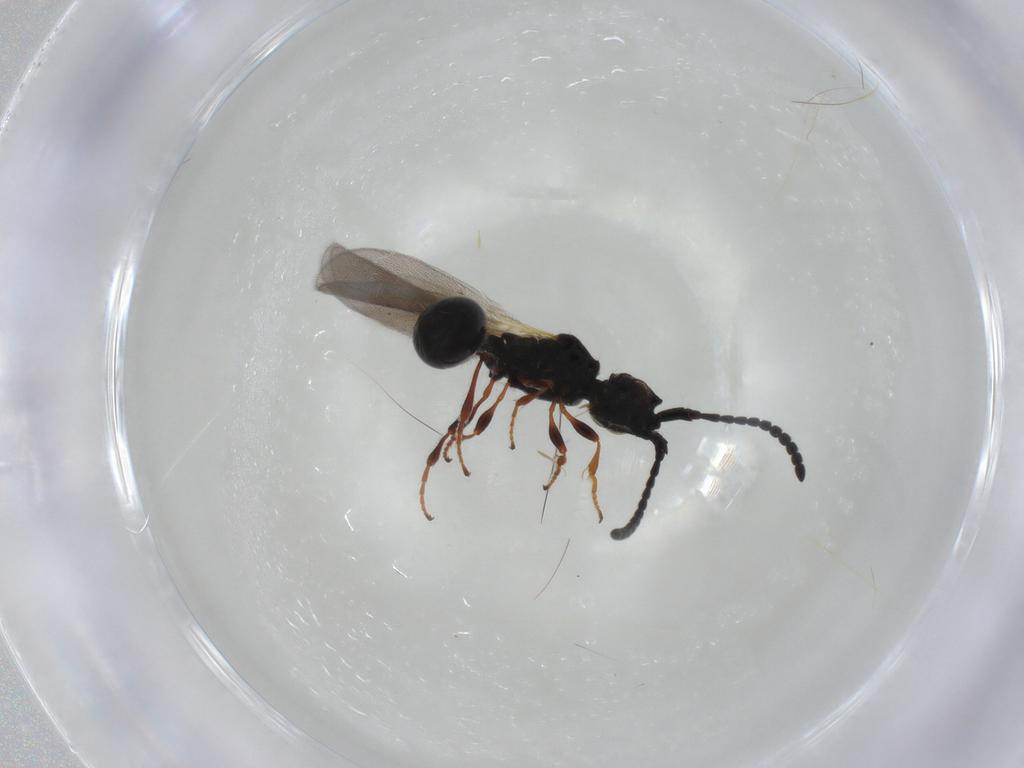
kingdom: Animalia
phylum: Arthropoda
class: Insecta
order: Hymenoptera
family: Diapriidae
